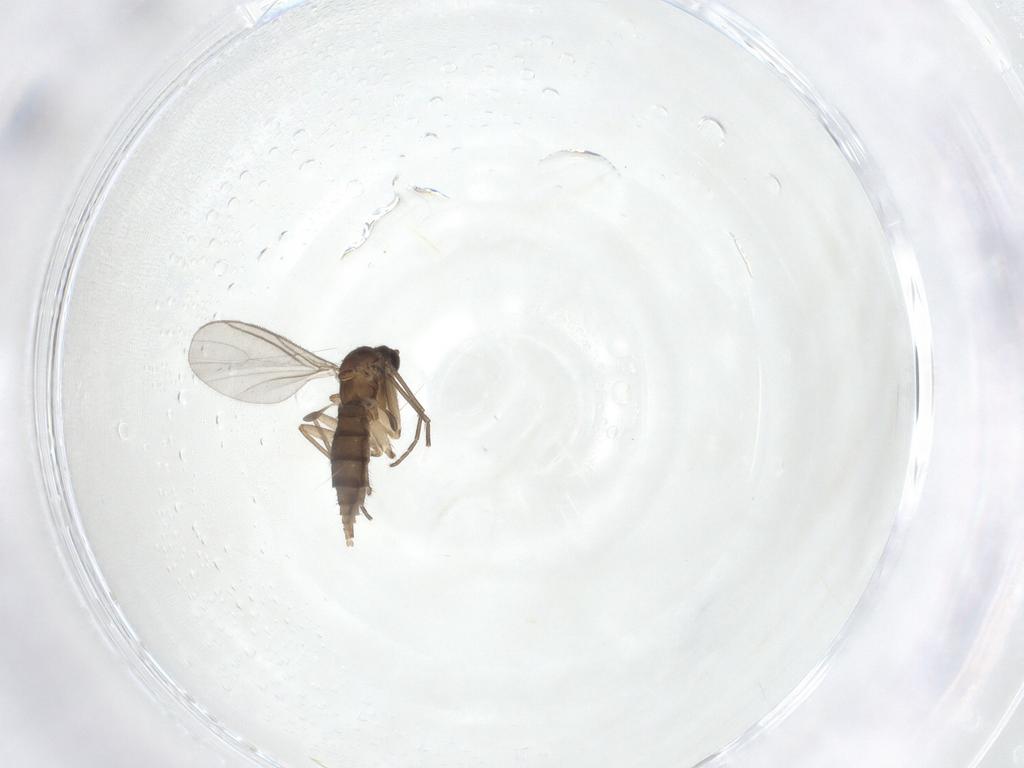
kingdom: Animalia
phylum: Arthropoda
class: Insecta
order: Diptera
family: Sciaridae
